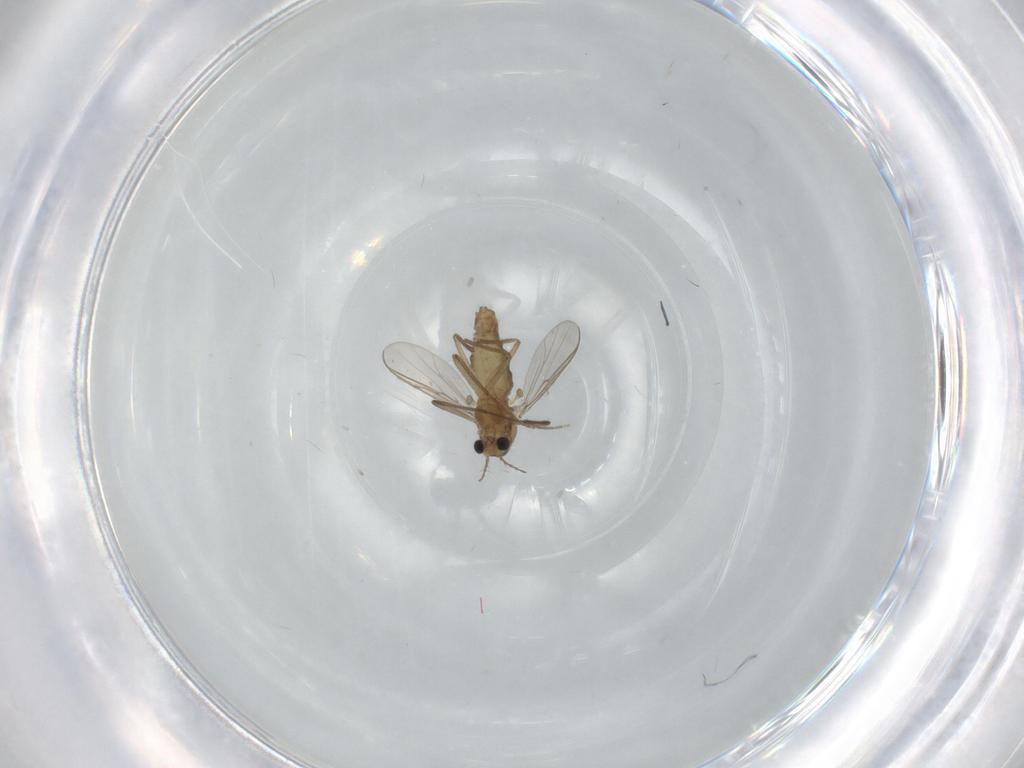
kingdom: Animalia
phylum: Arthropoda
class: Insecta
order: Diptera
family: Chironomidae
